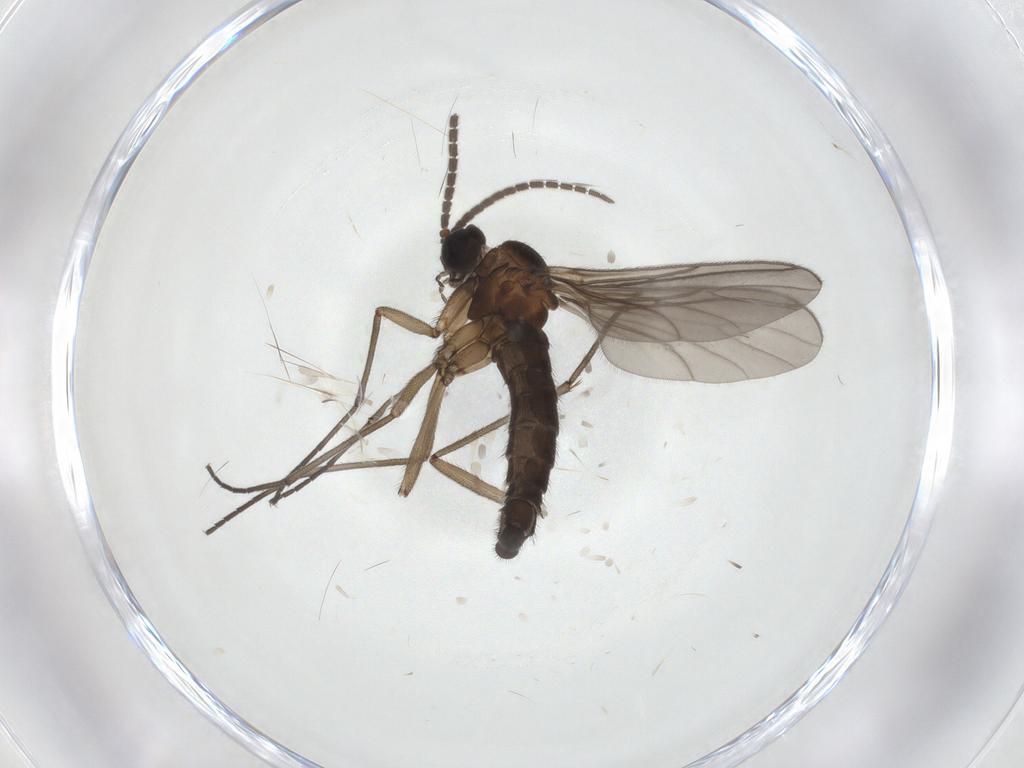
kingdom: Animalia
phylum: Arthropoda
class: Insecta
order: Diptera
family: Sciaridae
